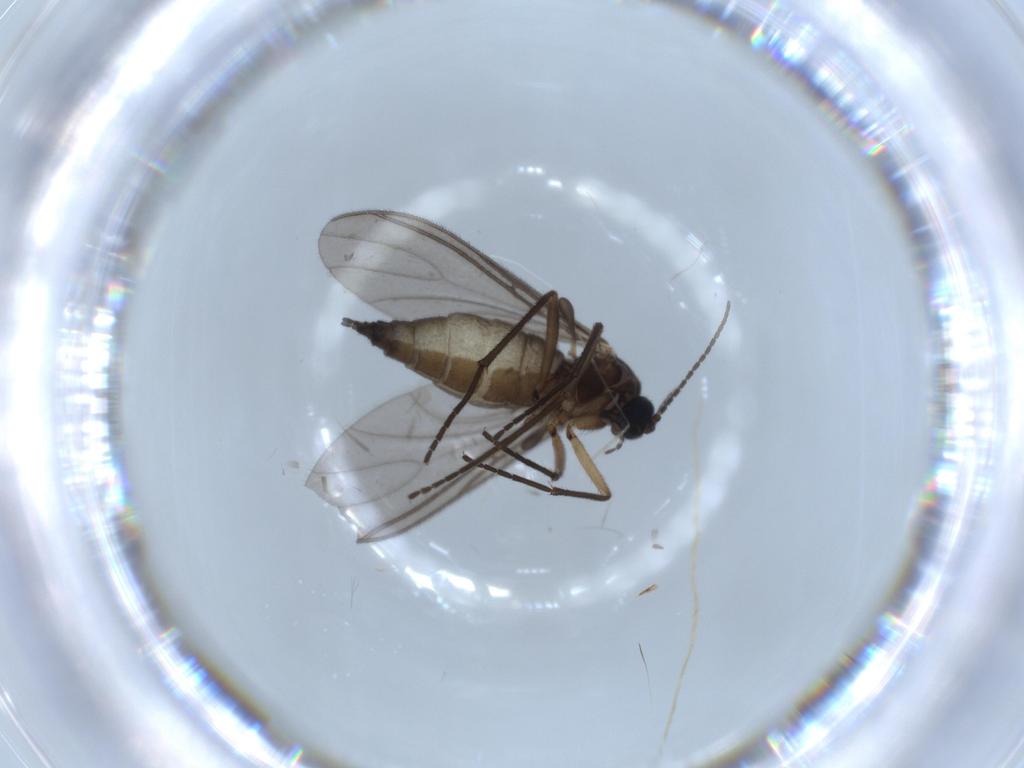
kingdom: Animalia
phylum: Arthropoda
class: Insecta
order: Diptera
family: Sciaridae
